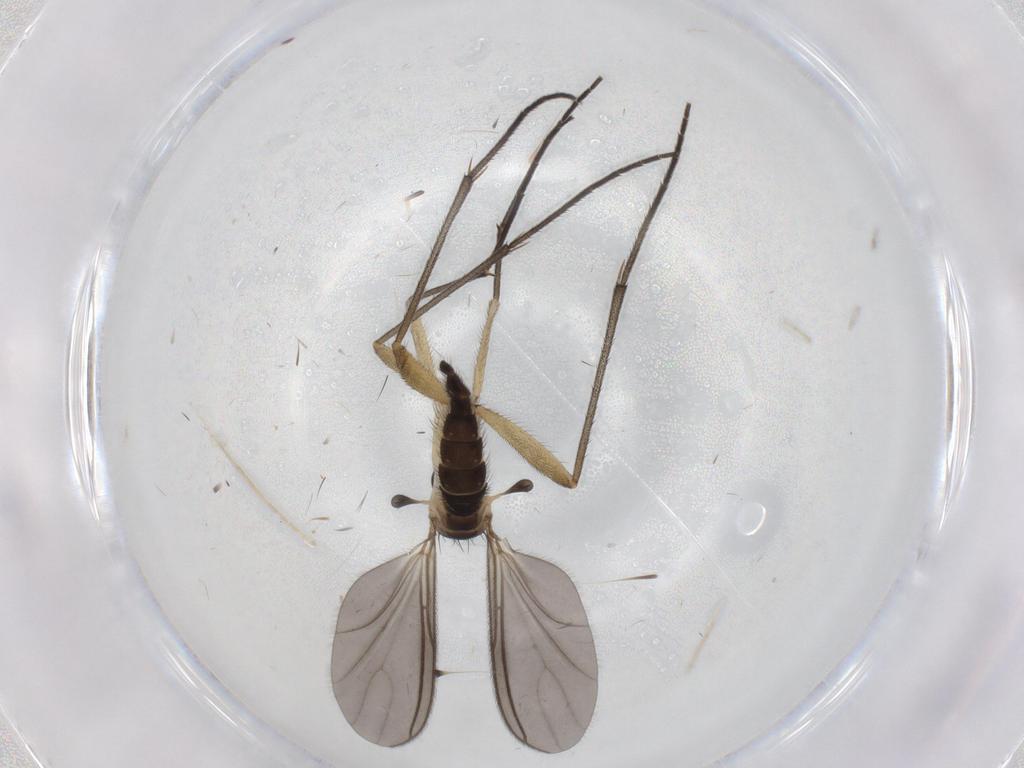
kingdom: Animalia
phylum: Arthropoda
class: Insecta
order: Diptera
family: Sciaridae
